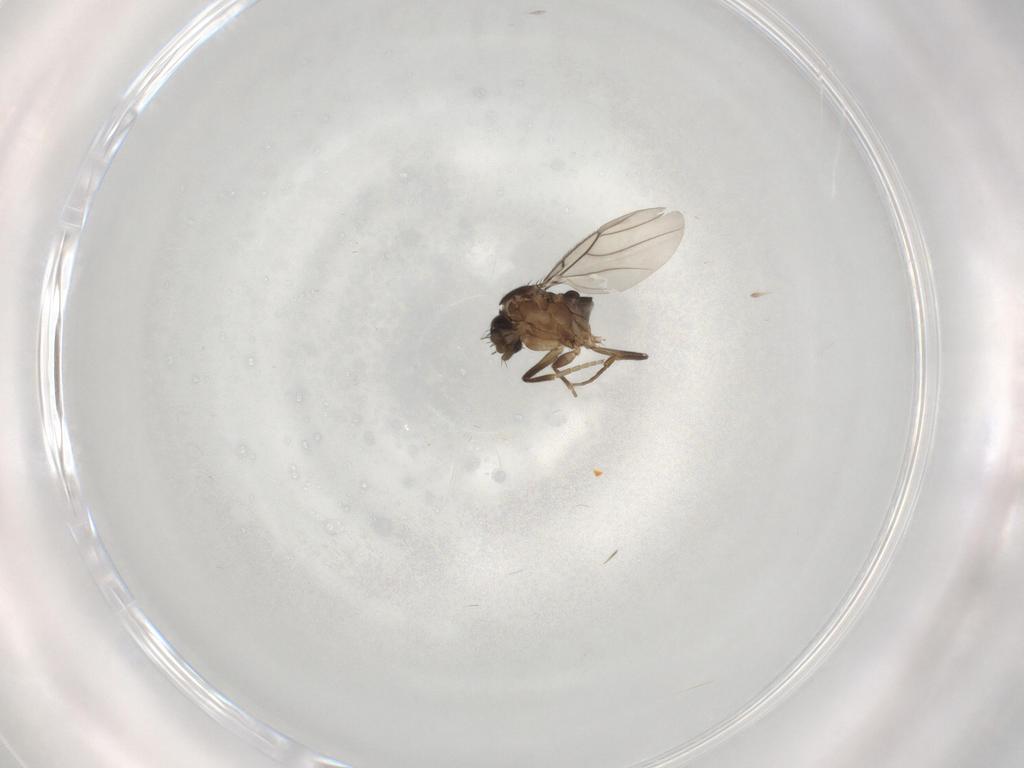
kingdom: Animalia
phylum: Arthropoda
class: Insecta
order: Diptera
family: Phoridae
